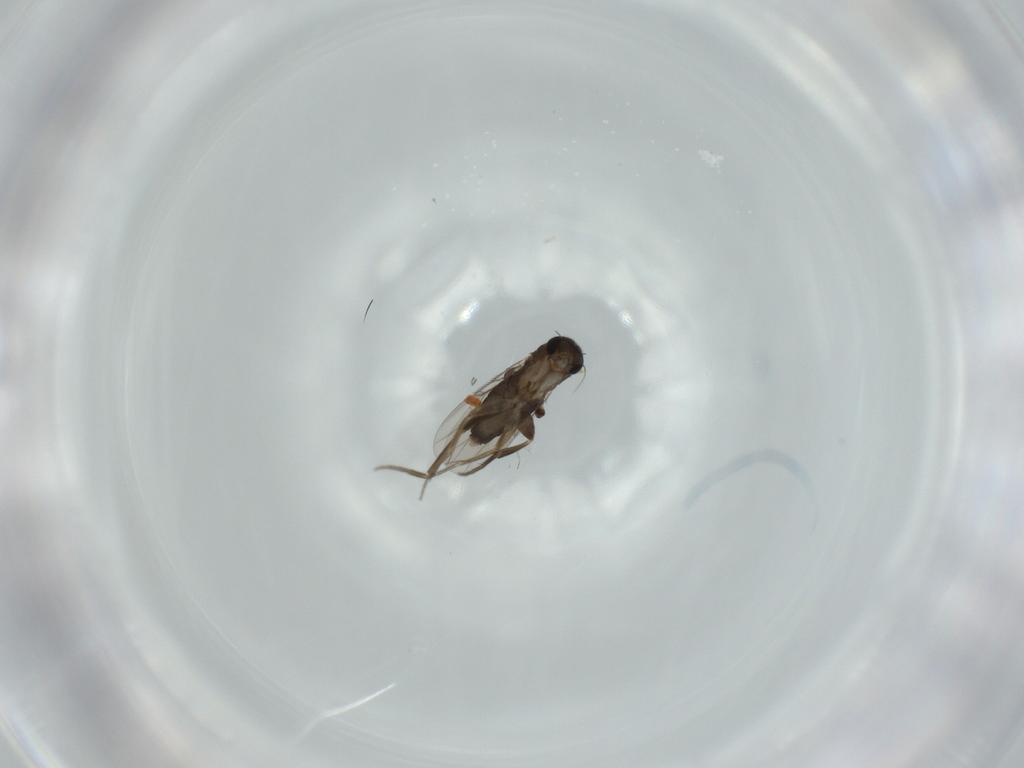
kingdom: Animalia
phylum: Arthropoda
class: Insecta
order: Diptera
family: Phoridae
